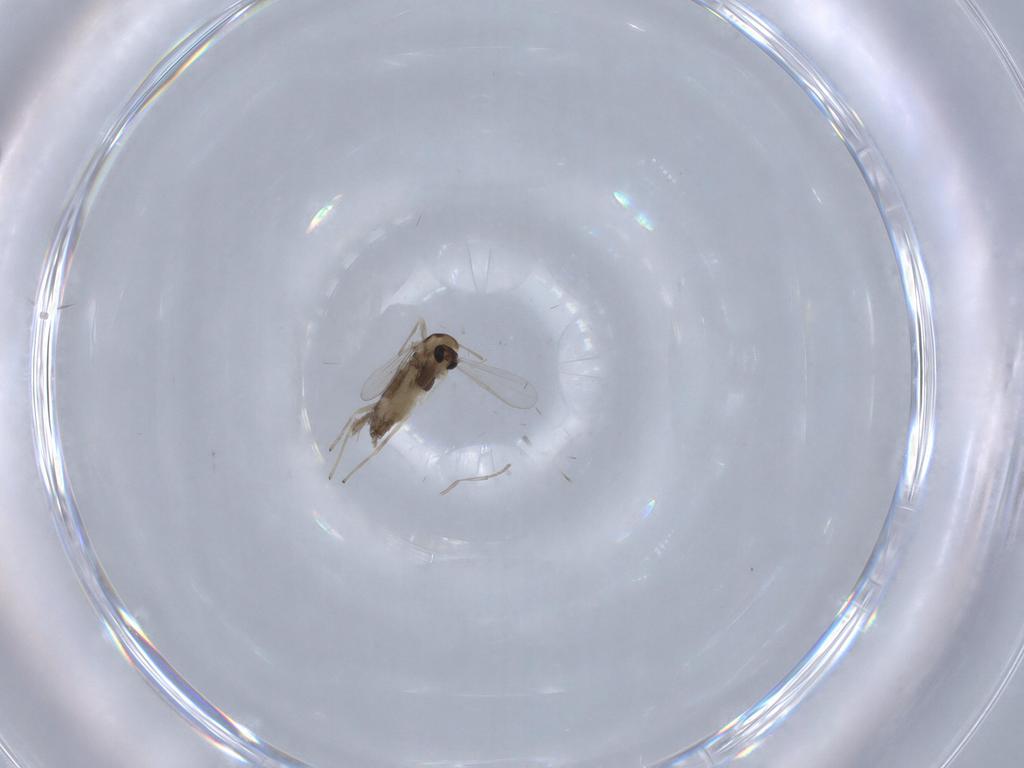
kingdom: Animalia
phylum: Arthropoda
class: Insecta
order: Diptera
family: Chironomidae
